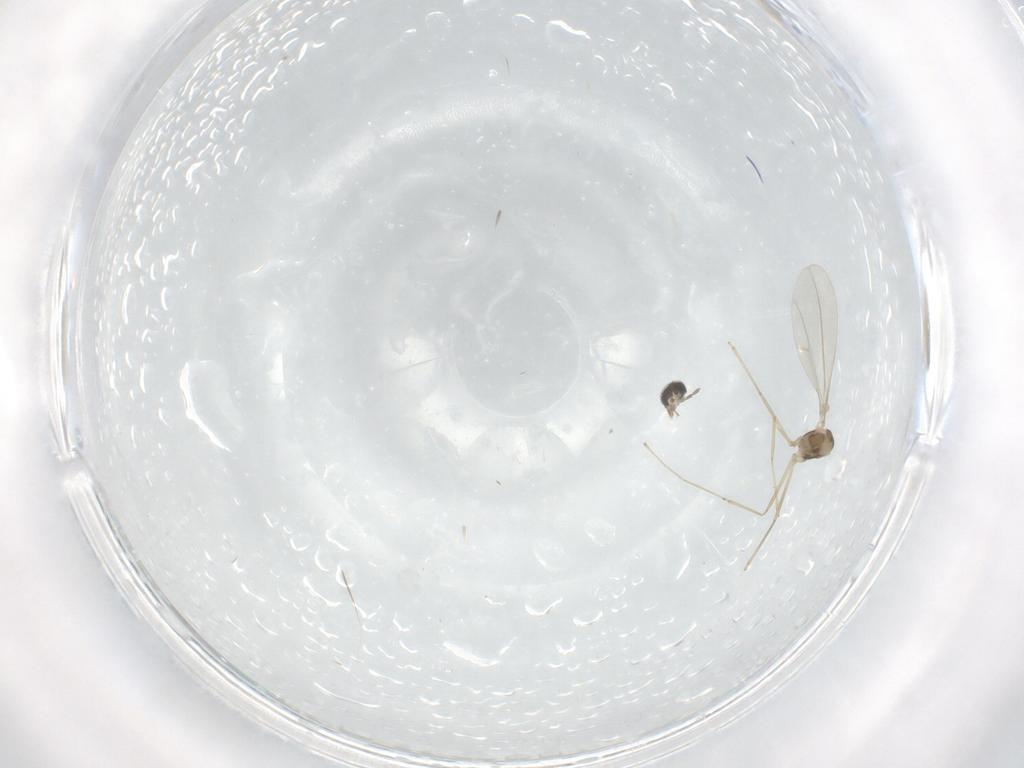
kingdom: Animalia
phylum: Arthropoda
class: Insecta
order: Diptera
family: Cecidomyiidae
